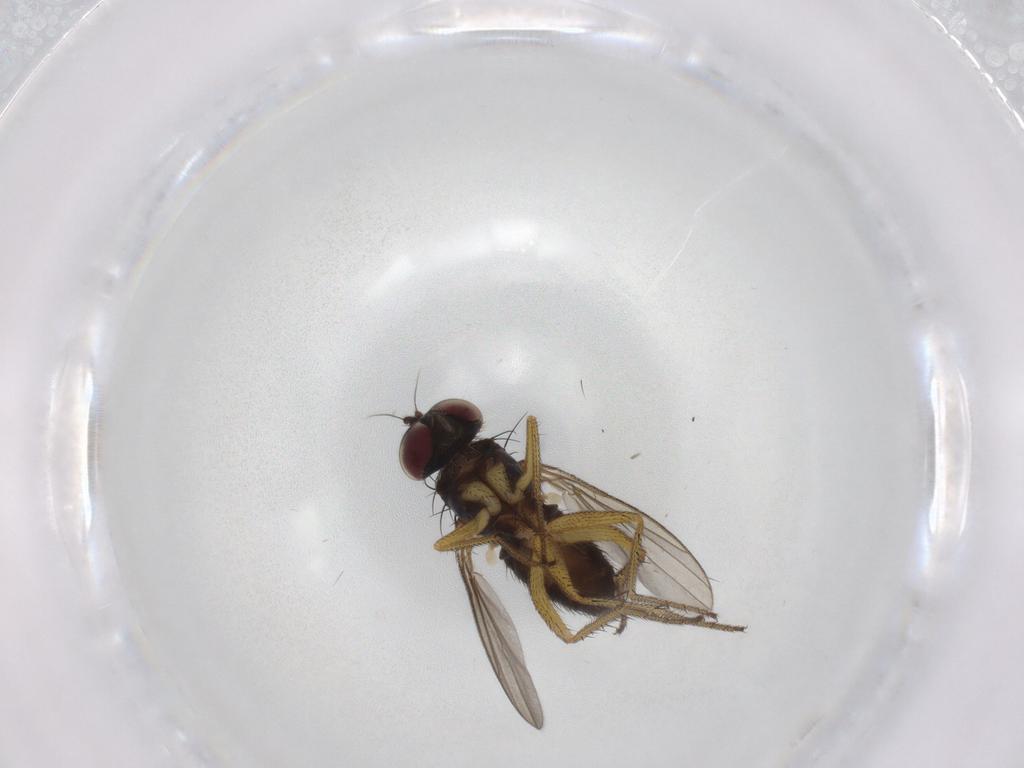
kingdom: Animalia
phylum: Arthropoda
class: Insecta
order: Diptera
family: Dolichopodidae
